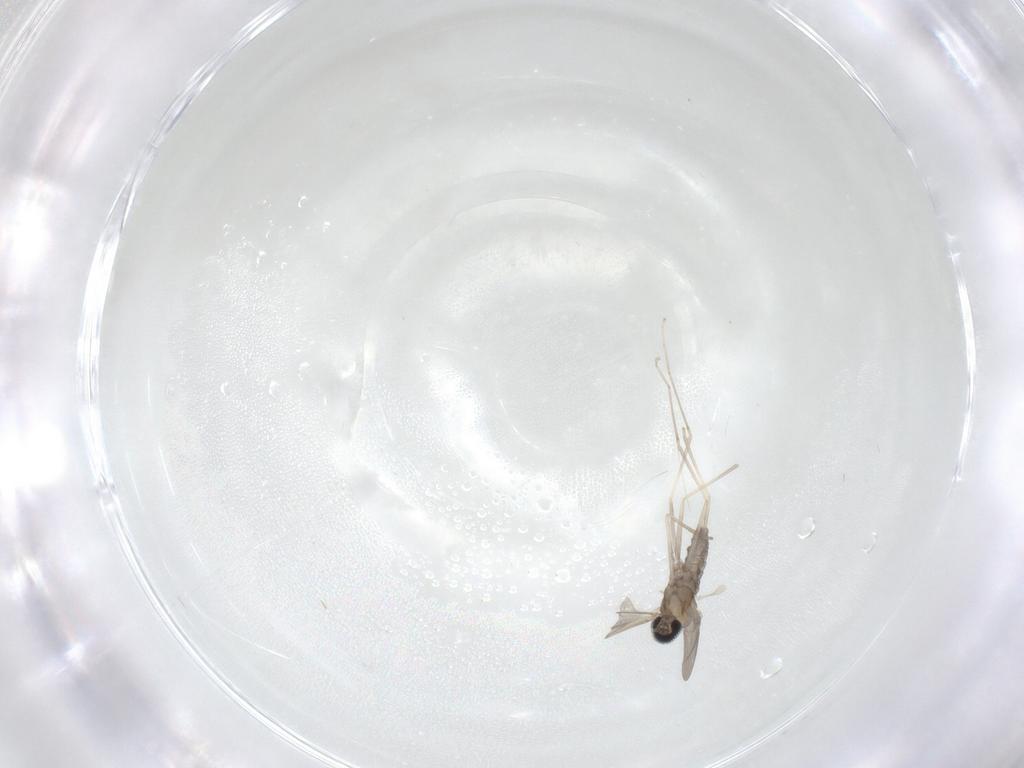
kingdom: Animalia
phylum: Arthropoda
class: Insecta
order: Diptera
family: Cecidomyiidae
